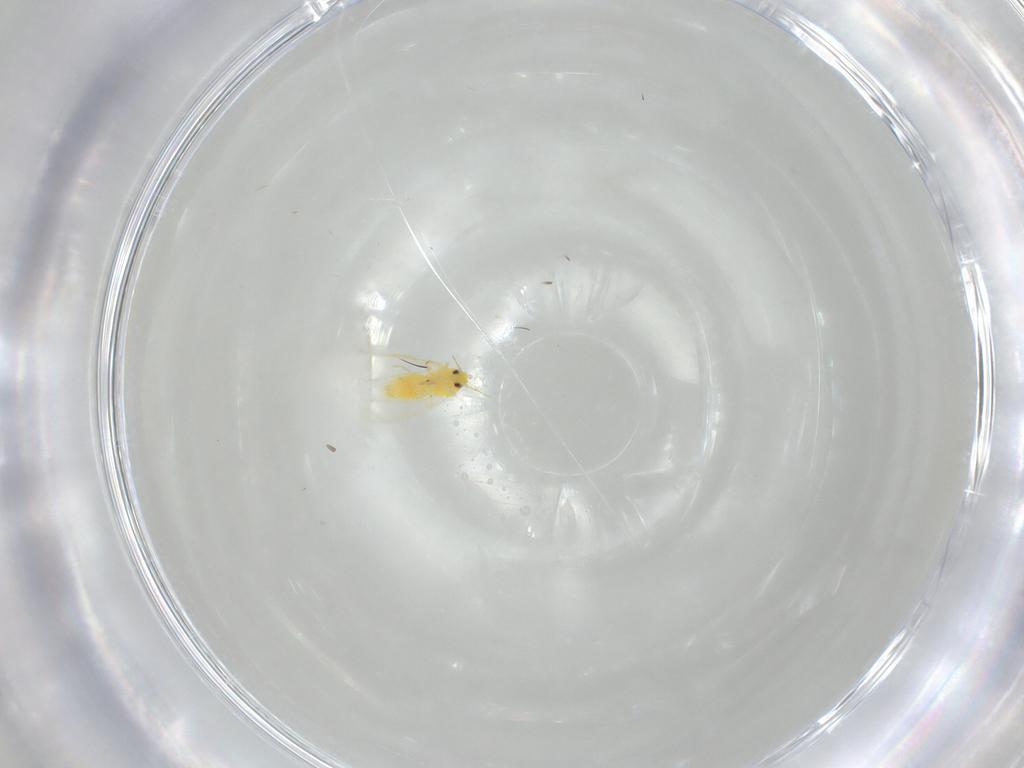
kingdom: Animalia
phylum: Arthropoda
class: Insecta
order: Hemiptera
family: Aleyrodidae
